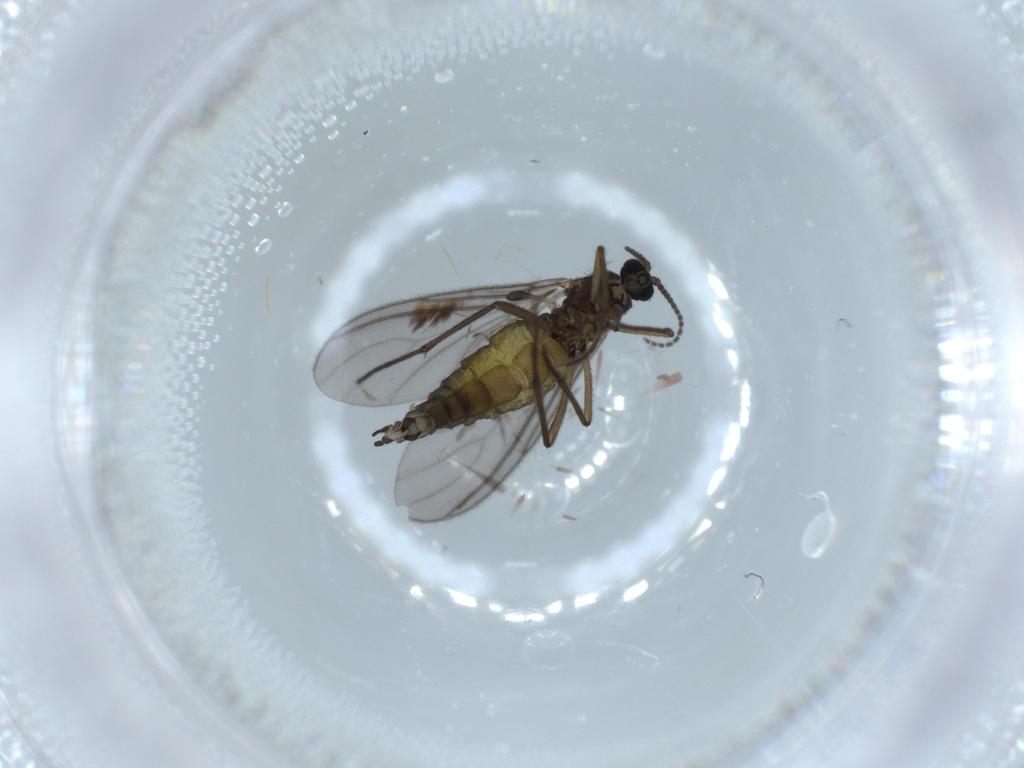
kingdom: Animalia
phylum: Arthropoda
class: Insecta
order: Diptera
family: Sciaridae
